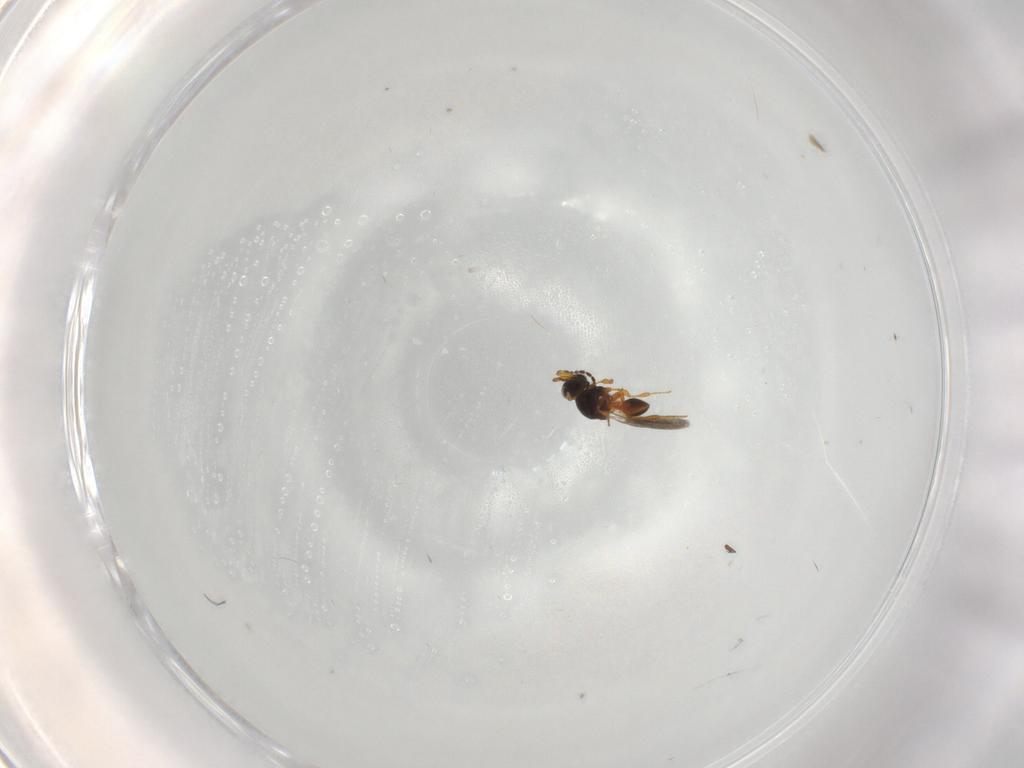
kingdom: Animalia
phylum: Arthropoda
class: Insecta
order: Hymenoptera
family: Platygastridae
